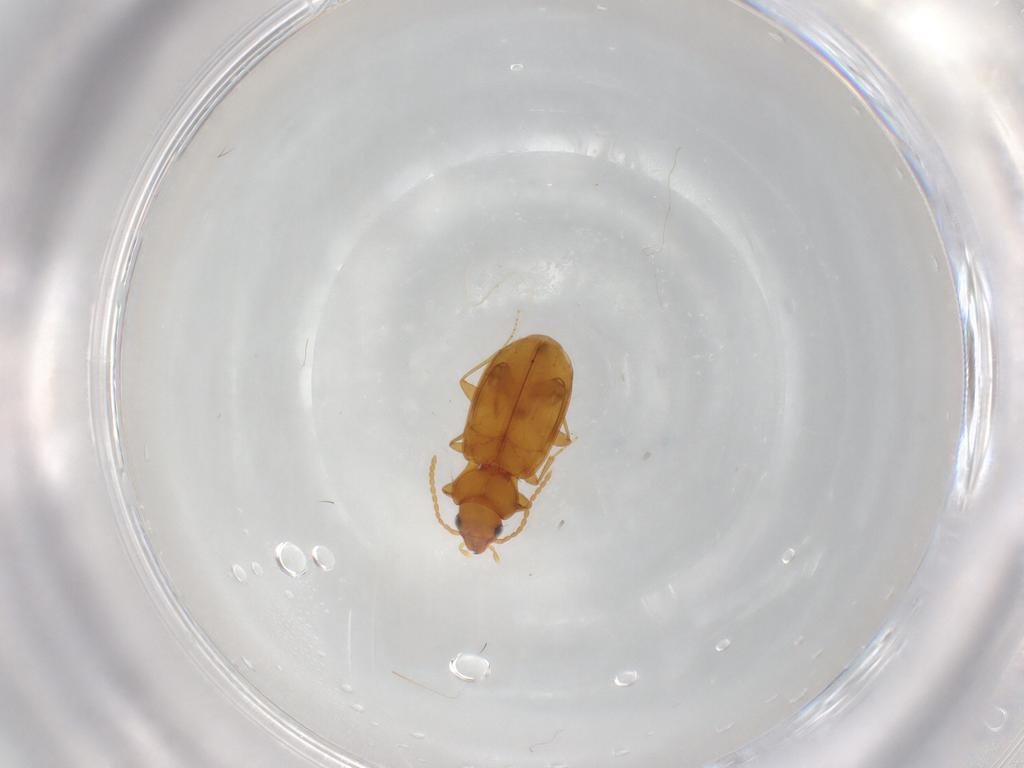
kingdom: Animalia
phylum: Arthropoda
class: Insecta
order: Coleoptera
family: Carabidae
